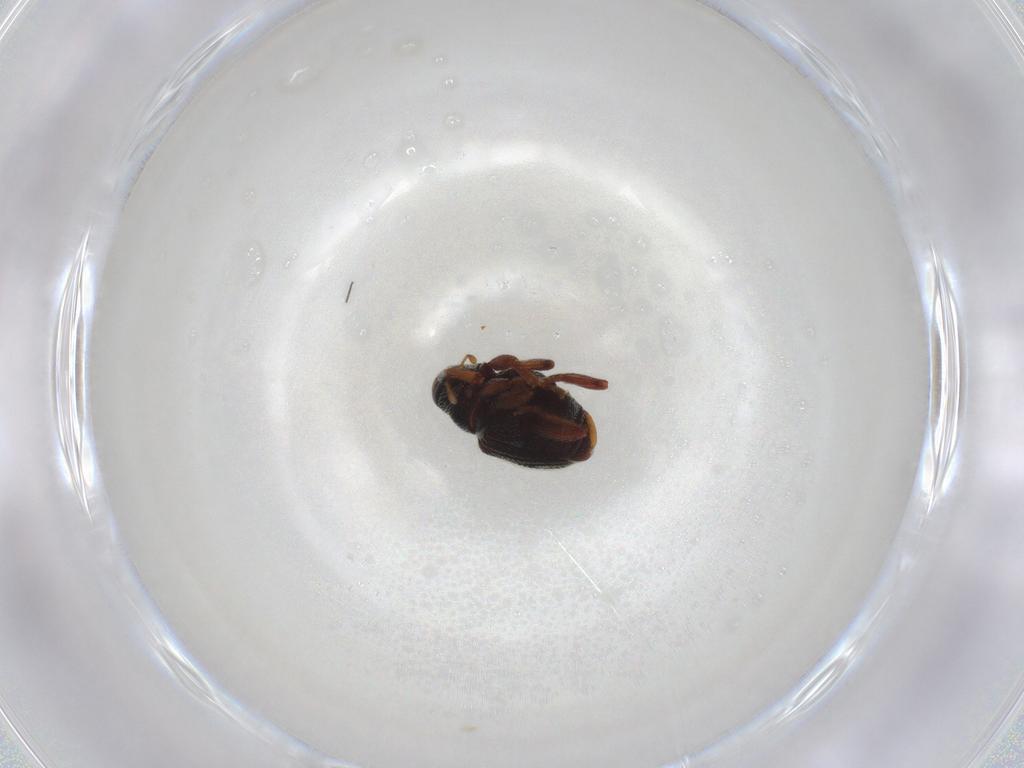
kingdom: Animalia
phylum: Arthropoda
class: Insecta
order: Coleoptera
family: Curculionidae
